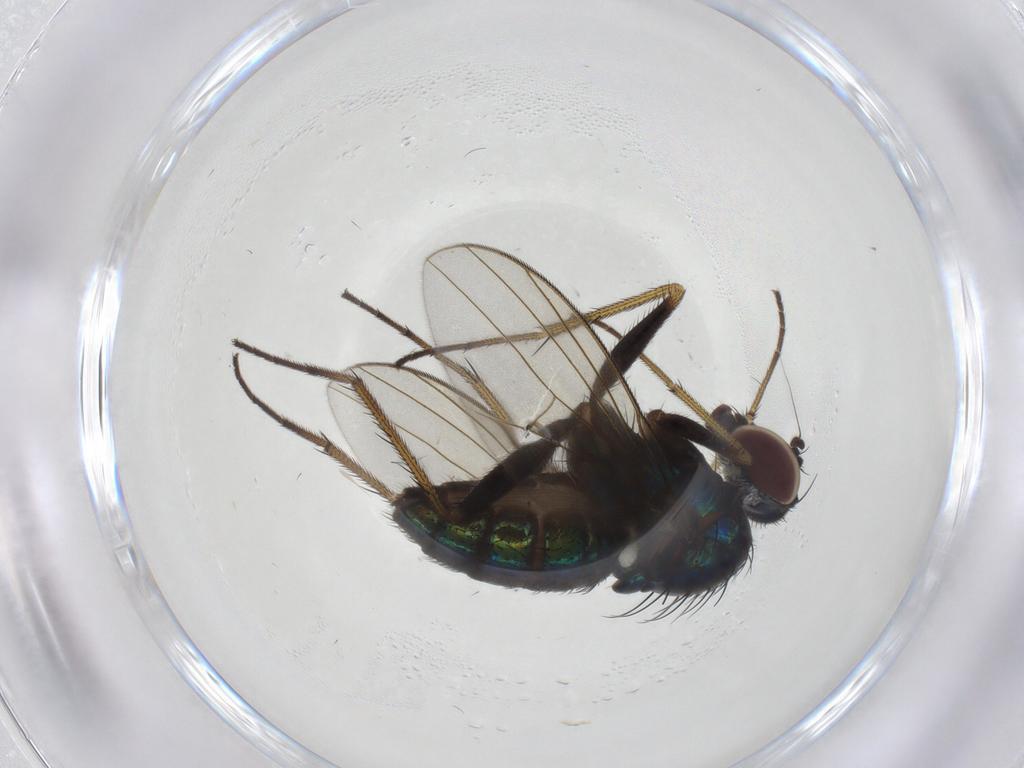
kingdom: Animalia
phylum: Arthropoda
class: Insecta
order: Diptera
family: Dolichopodidae
